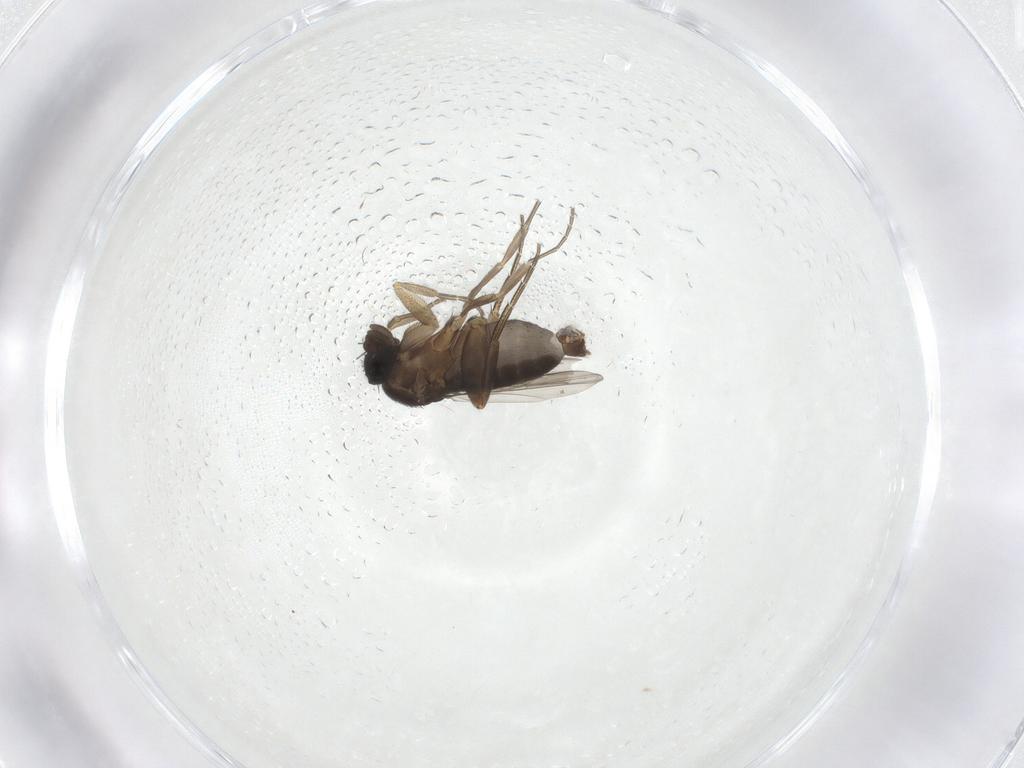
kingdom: Animalia
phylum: Arthropoda
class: Insecta
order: Diptera
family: Phoridae
